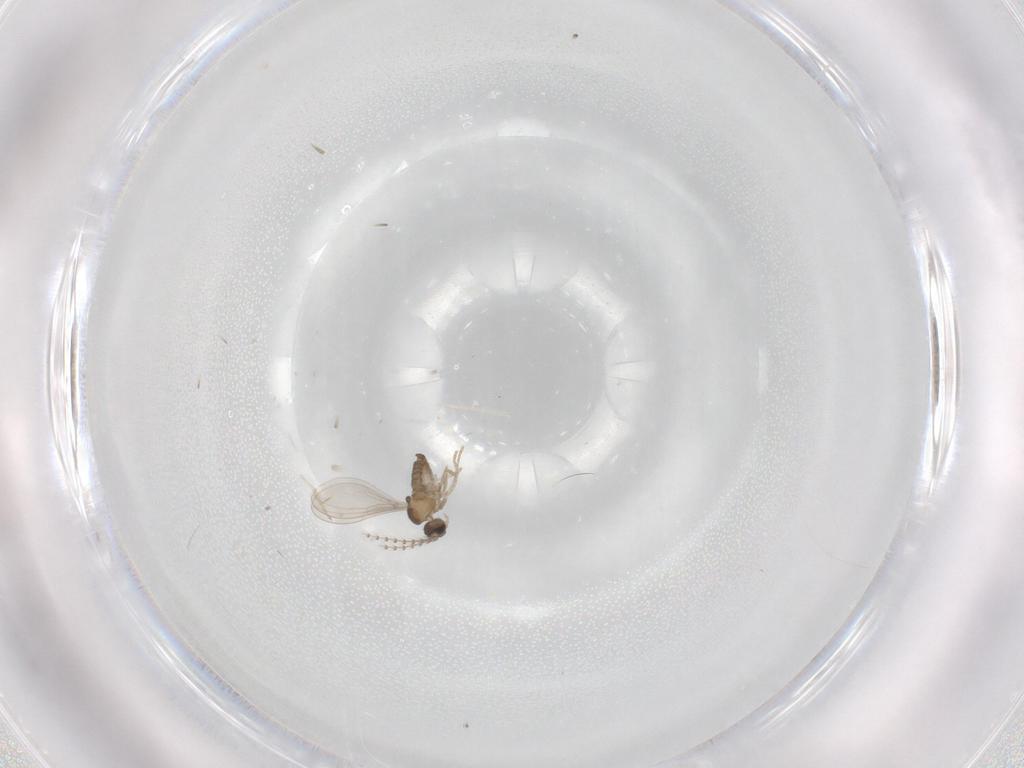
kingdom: Animalia
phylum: Arthropoda
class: Insecta
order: Diptera
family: Cecidomyiidae
